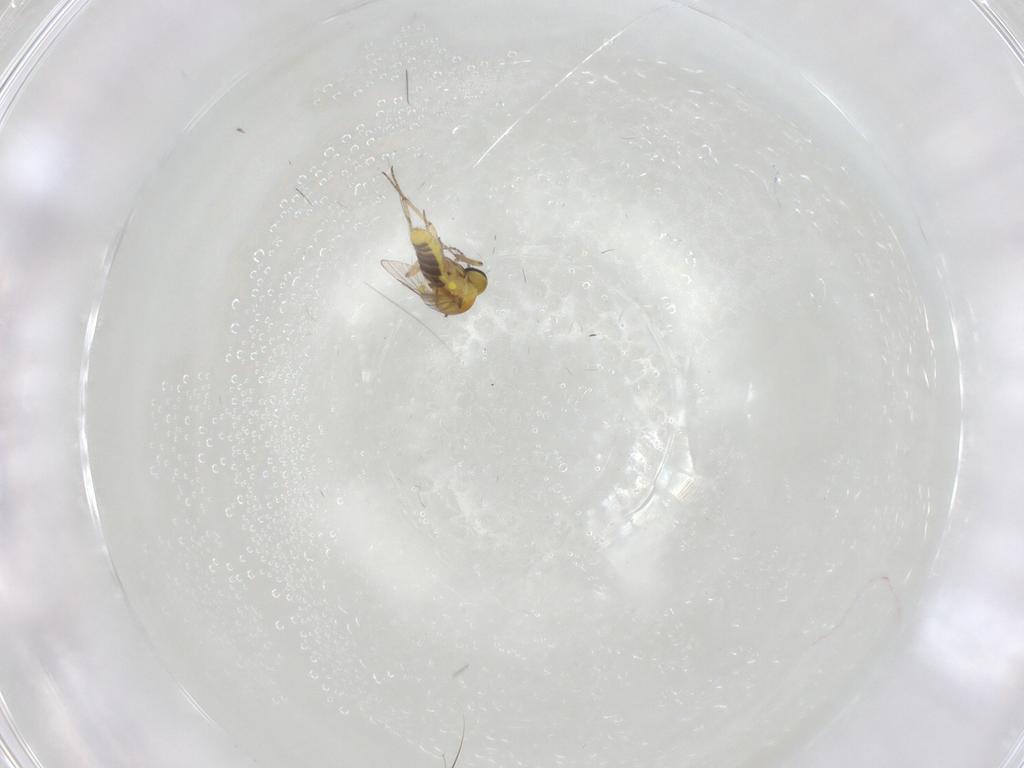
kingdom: Animalia
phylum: Arthropoda
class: Insecta
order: Diptera
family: Ceratopogonidae
